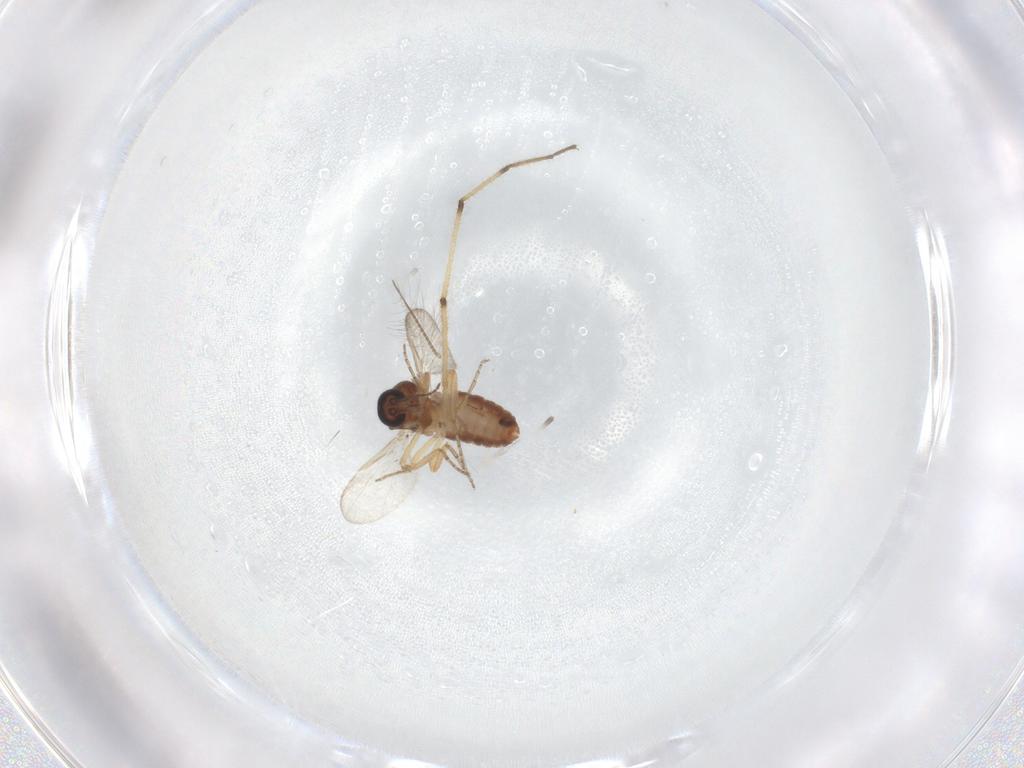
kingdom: Animalia
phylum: Arthropoda
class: Insecta
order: Diptera
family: Ceratopogonidae
